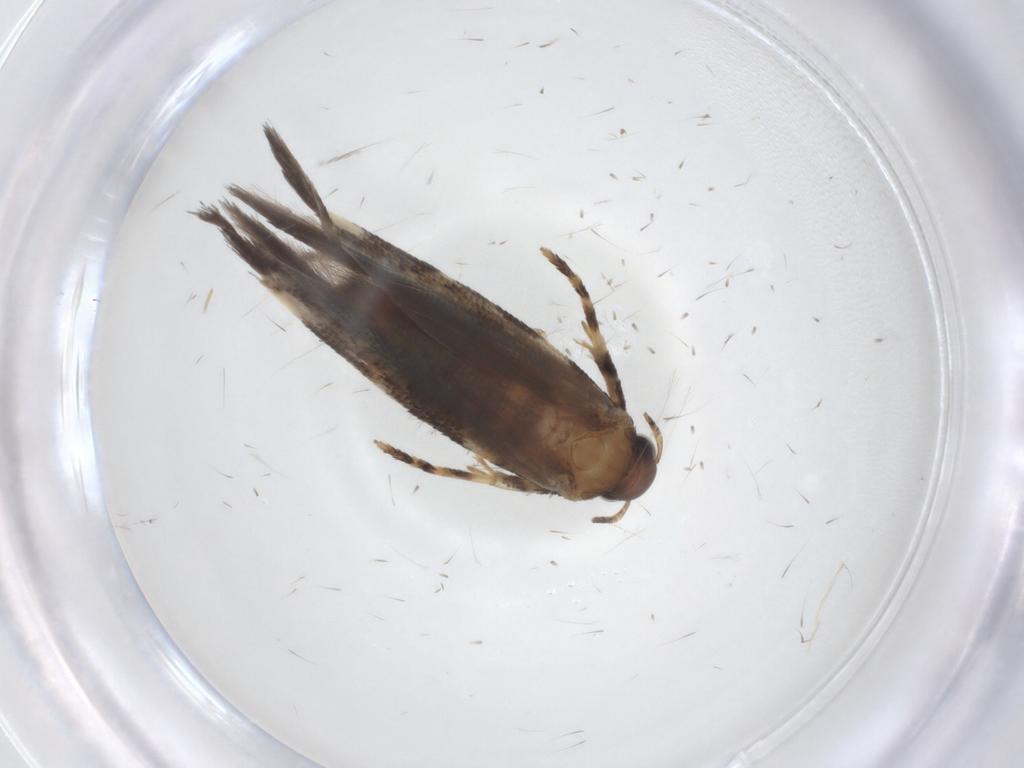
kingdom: Animalia
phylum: Arthropoda
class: Insecta
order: Lepidoptera
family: Gelechiidae
